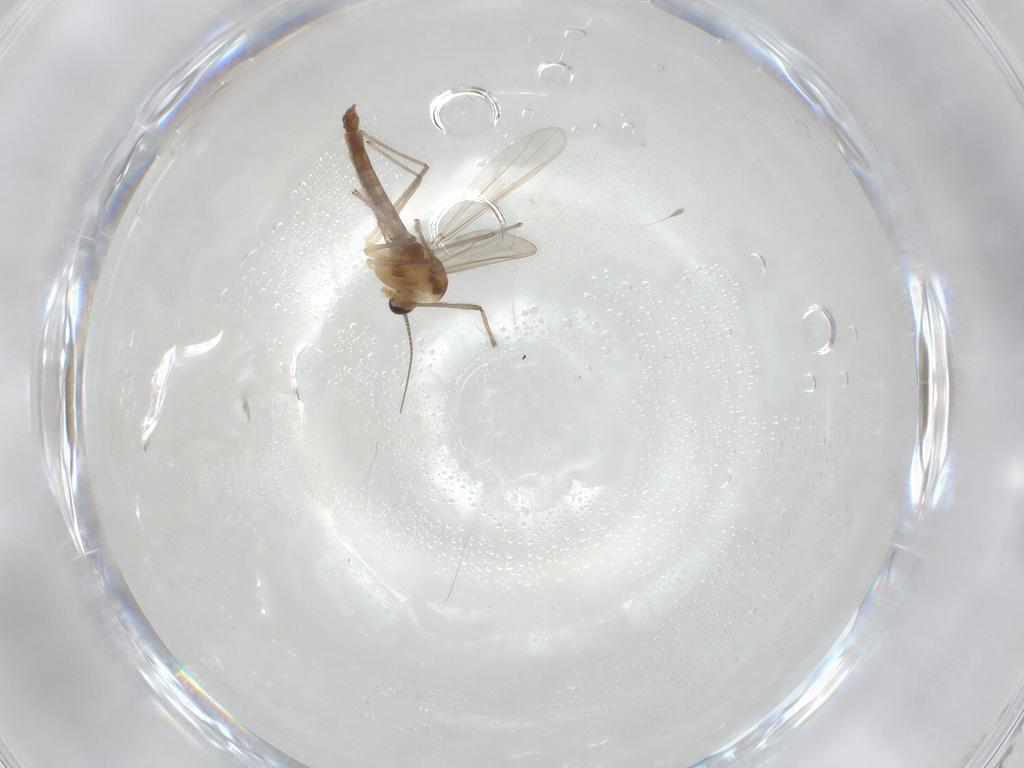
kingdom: Animalia
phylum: Arthropoda
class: Insecta
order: Diptera
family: Chironomidae
